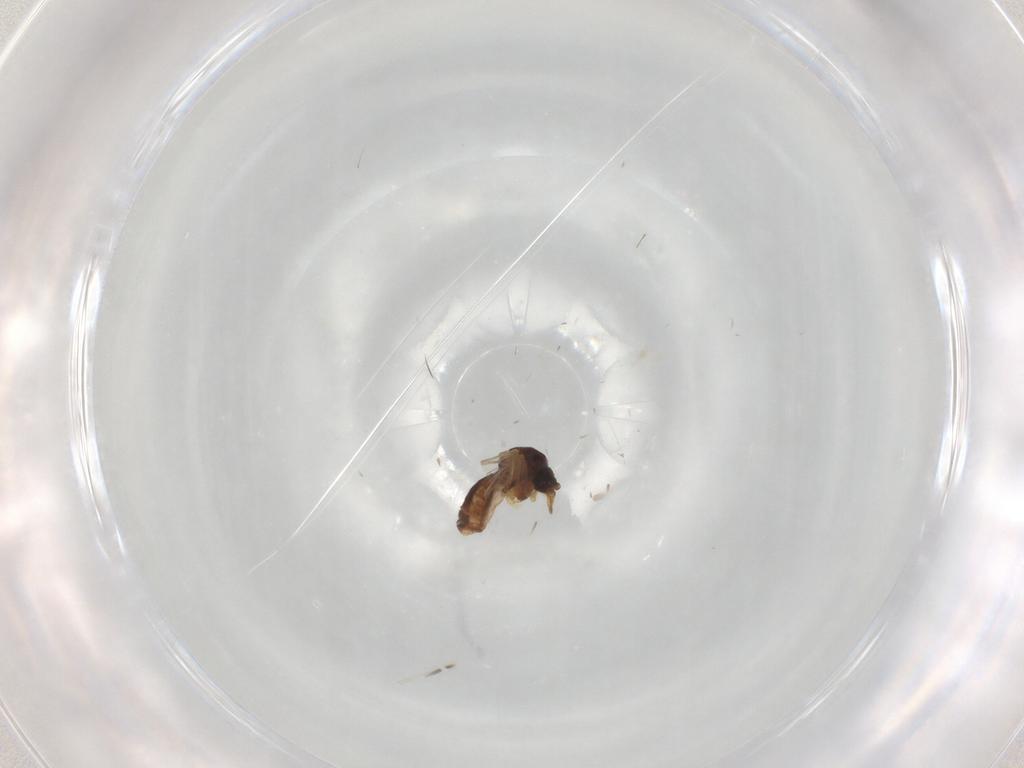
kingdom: Animalia
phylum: Arthropoda
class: Insecta
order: Diptera
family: Ceratopogonidae
